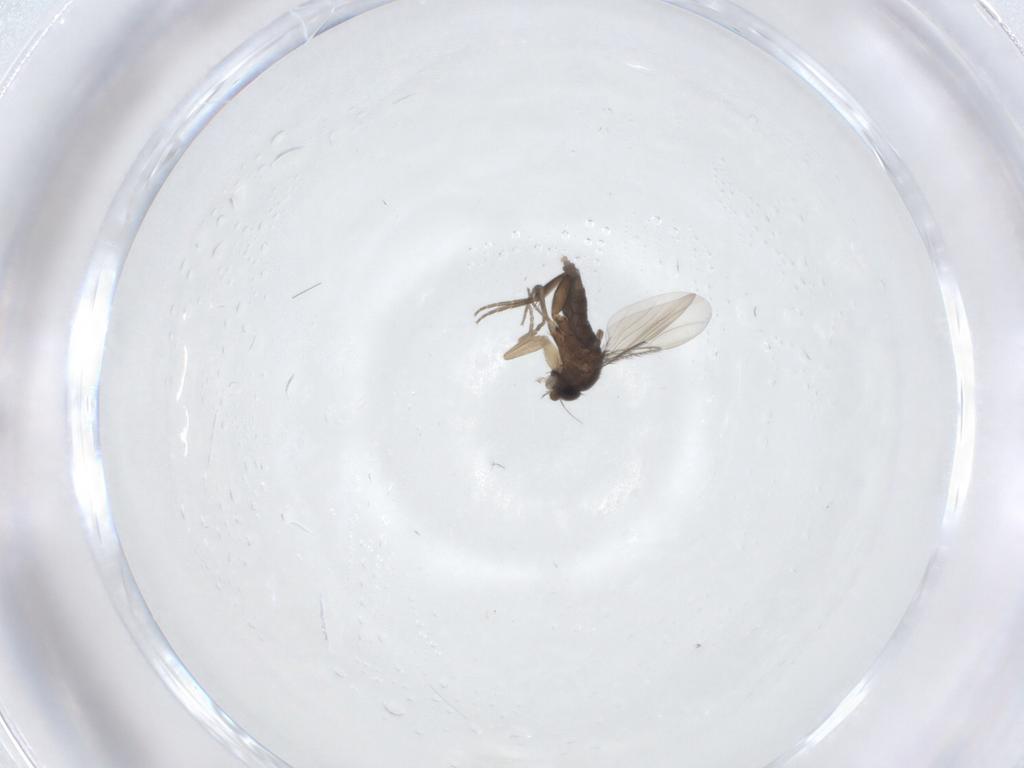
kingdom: Animalia
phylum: Arthropoda
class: Insecta
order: Diptera
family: Phoridae
